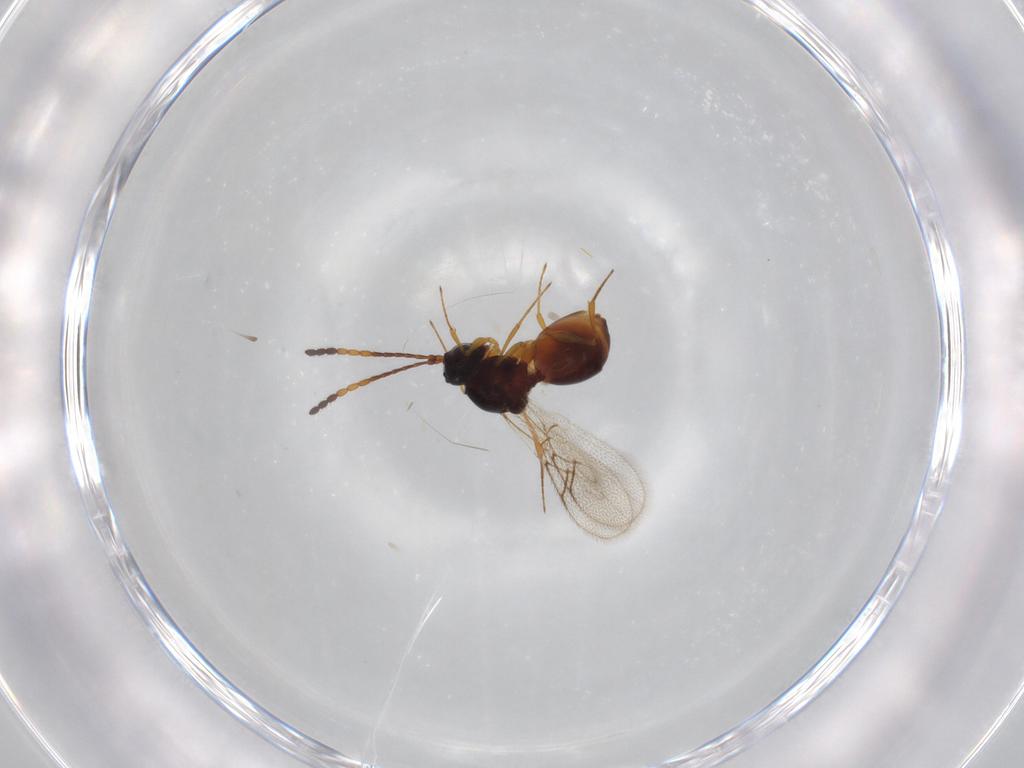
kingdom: Animalia
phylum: Arthropoda
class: Insecta
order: Hymenoptera
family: Figitidae
